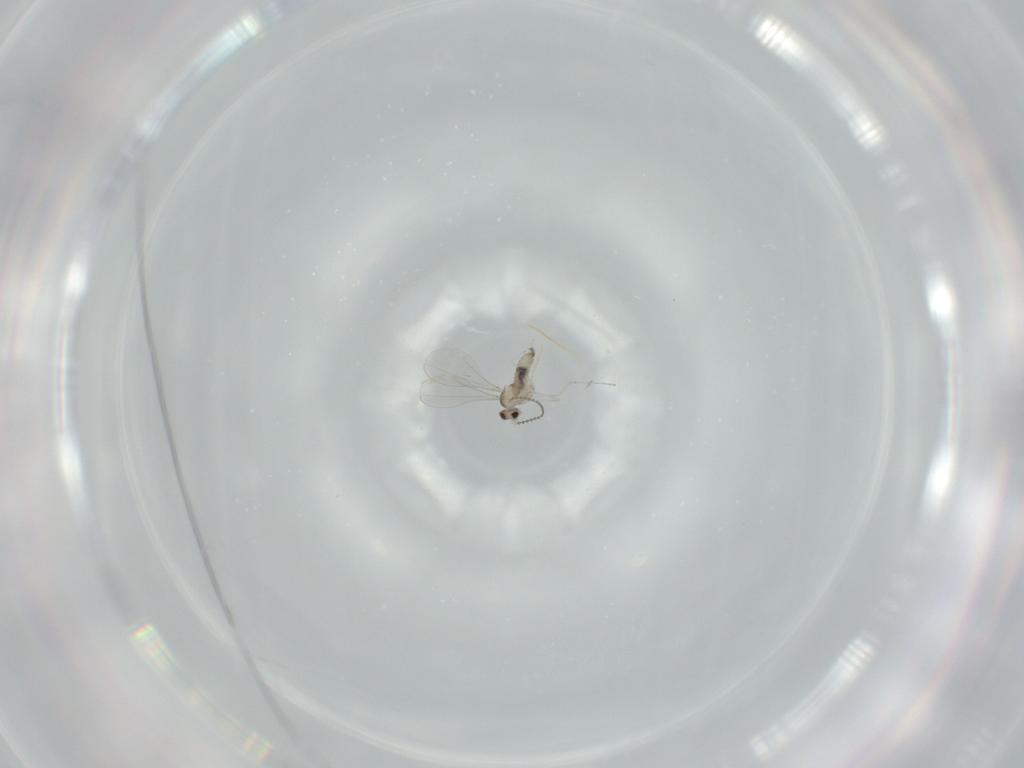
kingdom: Animalia
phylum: Arthropoda
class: Insecta
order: Diptera
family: Cecidomyiidae
